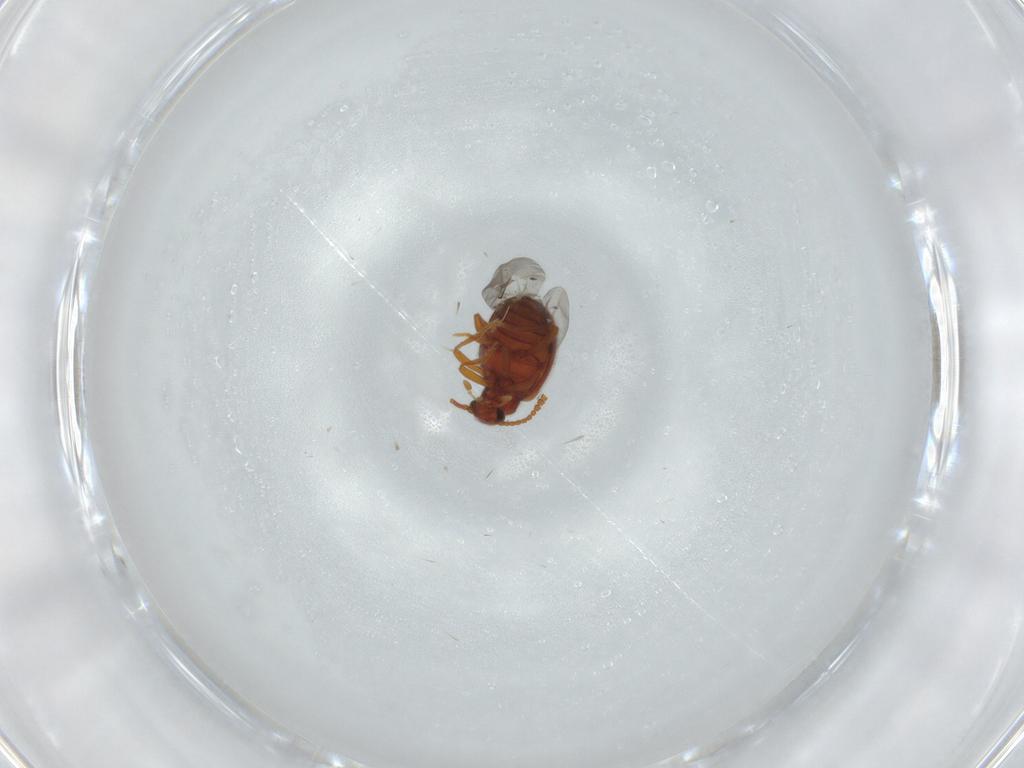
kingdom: Animalia
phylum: Arthropoda
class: Insecta
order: Coleoptera
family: Aderidae
